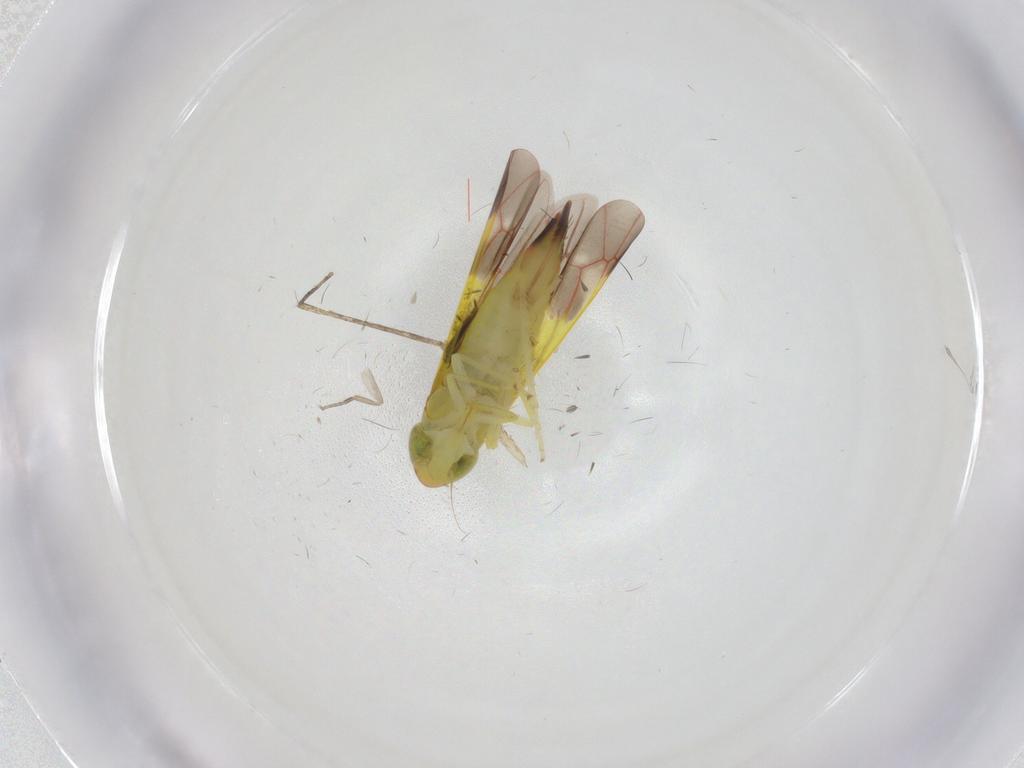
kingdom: Animalia
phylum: Arthropoda
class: Insecta
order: Hemiptera
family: Cicadellidae
